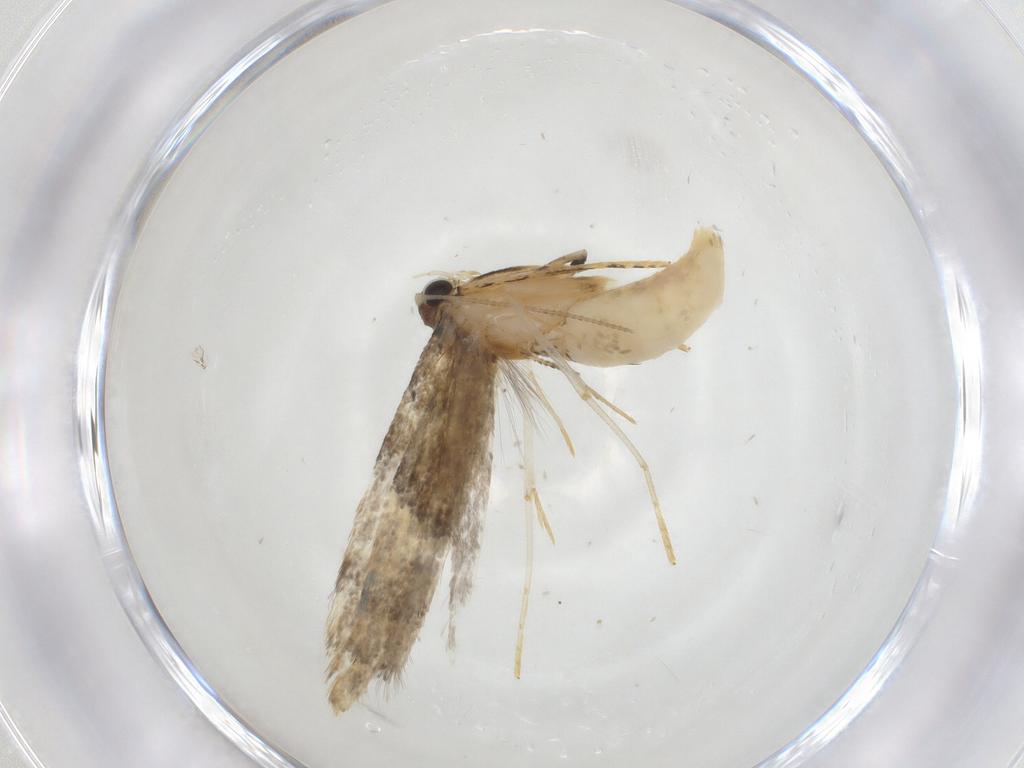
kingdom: Animalia
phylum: Arthropoda
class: Insecta
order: Lepidoptera
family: Tineidae
